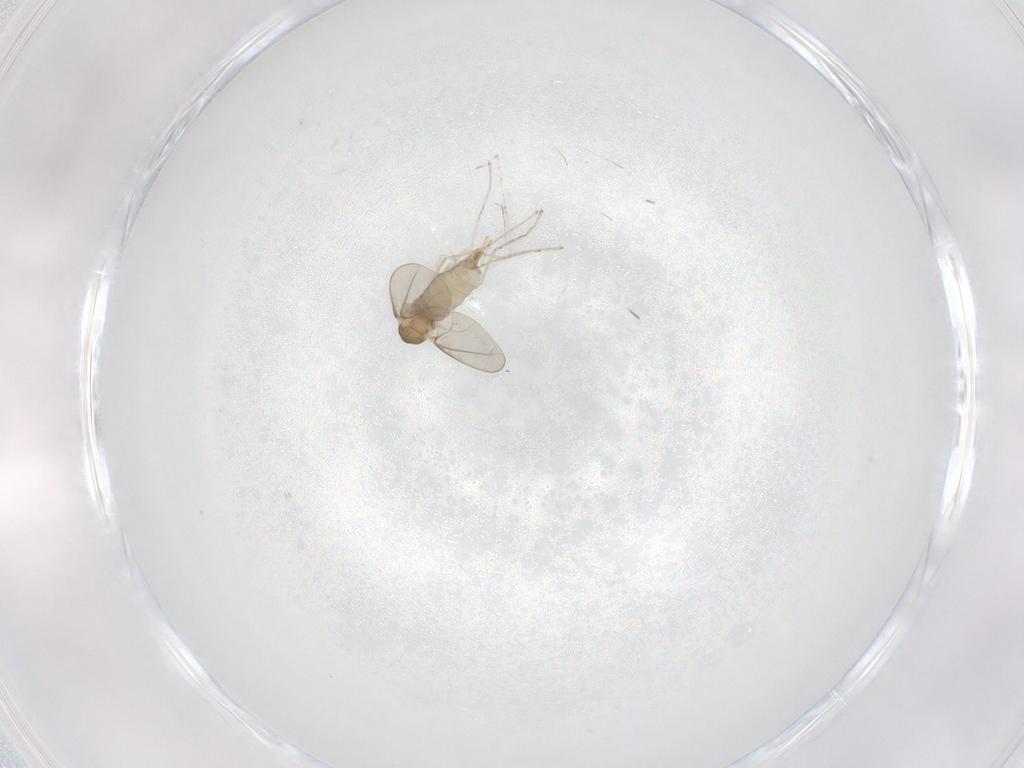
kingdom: Animalia
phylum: Arthropoda
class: Insecta
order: Diptera
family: Cecidomyiidae
